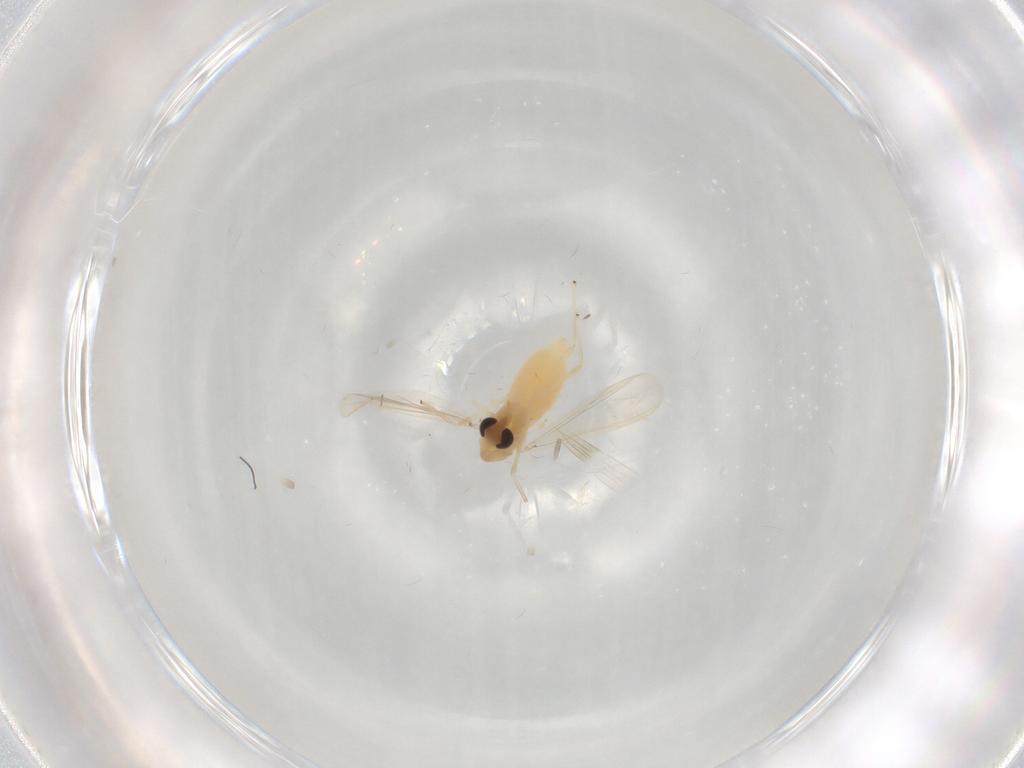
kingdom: Animalia
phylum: Arthropoda
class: Insecta
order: Diptera
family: Chironomidae
